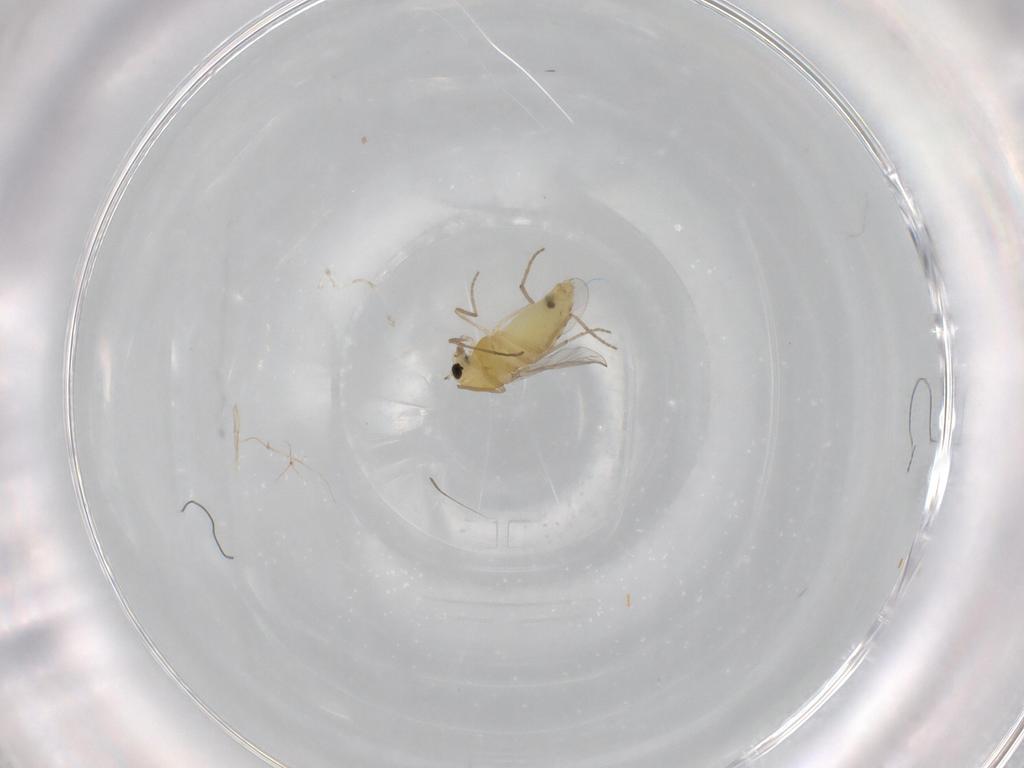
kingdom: Animalia
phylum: Arthropoda
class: Insecta
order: Diptera
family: Chironomidae
